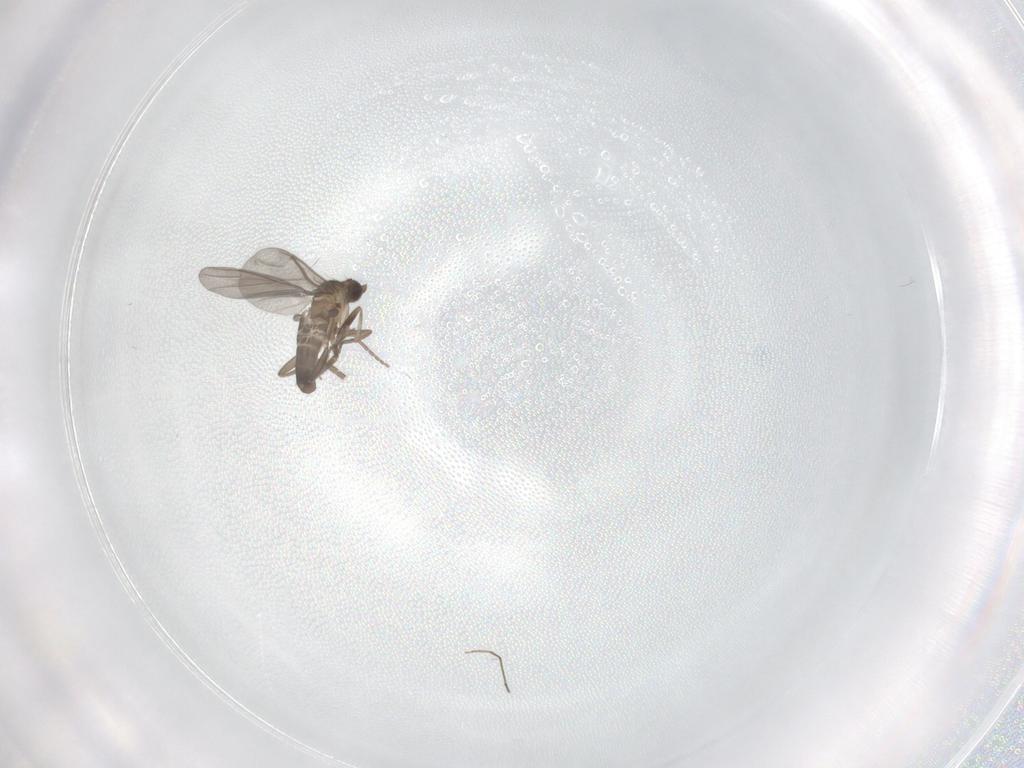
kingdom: Animalia
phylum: Arthropoda
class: Insecta
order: Diptera
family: Phoridae
